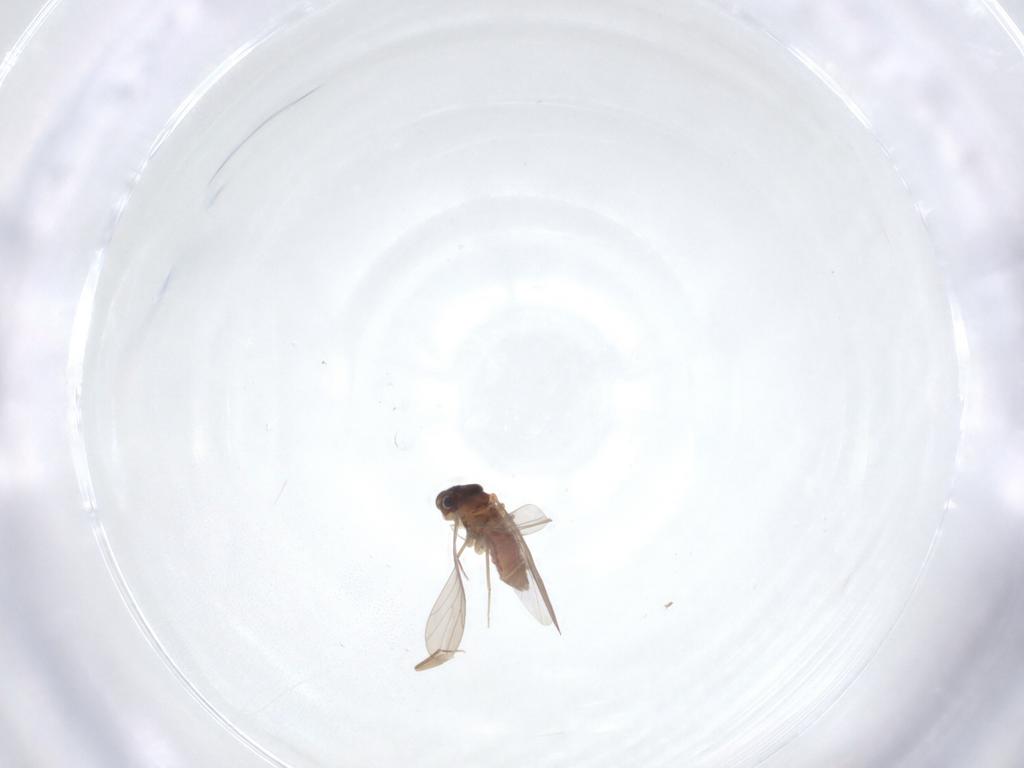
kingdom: Animalia
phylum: Arthropoda
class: Insecta
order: Psocodea
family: Lepidopsocidae
